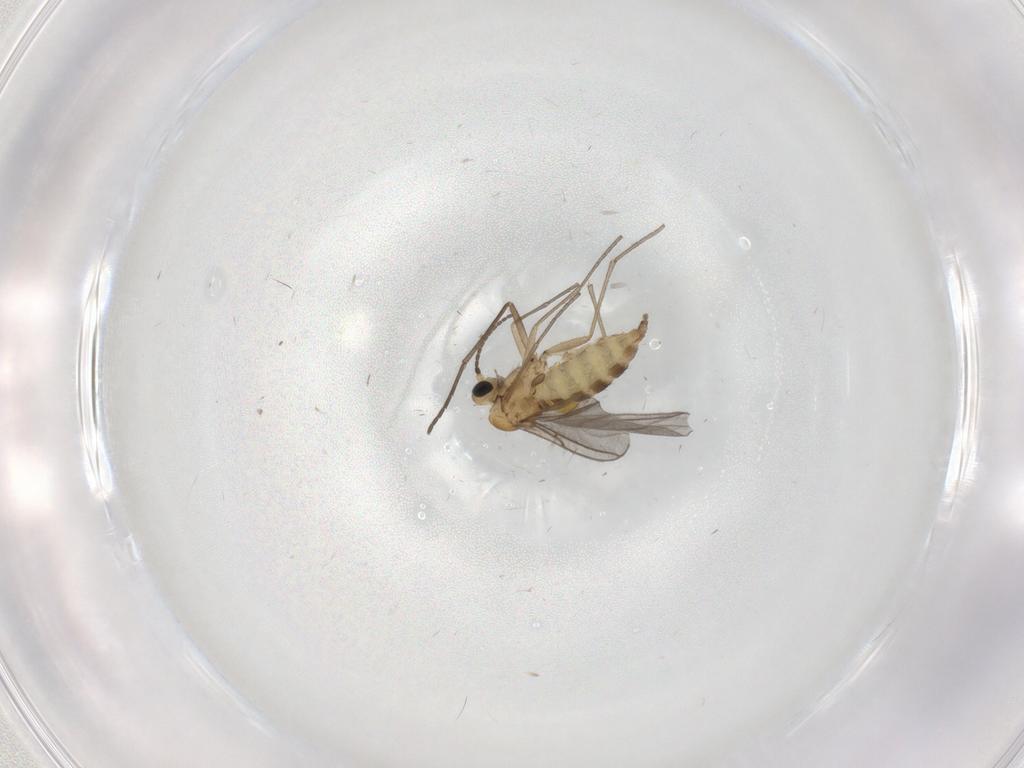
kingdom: Animalia
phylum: Arthropoda
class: Insecta
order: Diptera
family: Sciaridae
